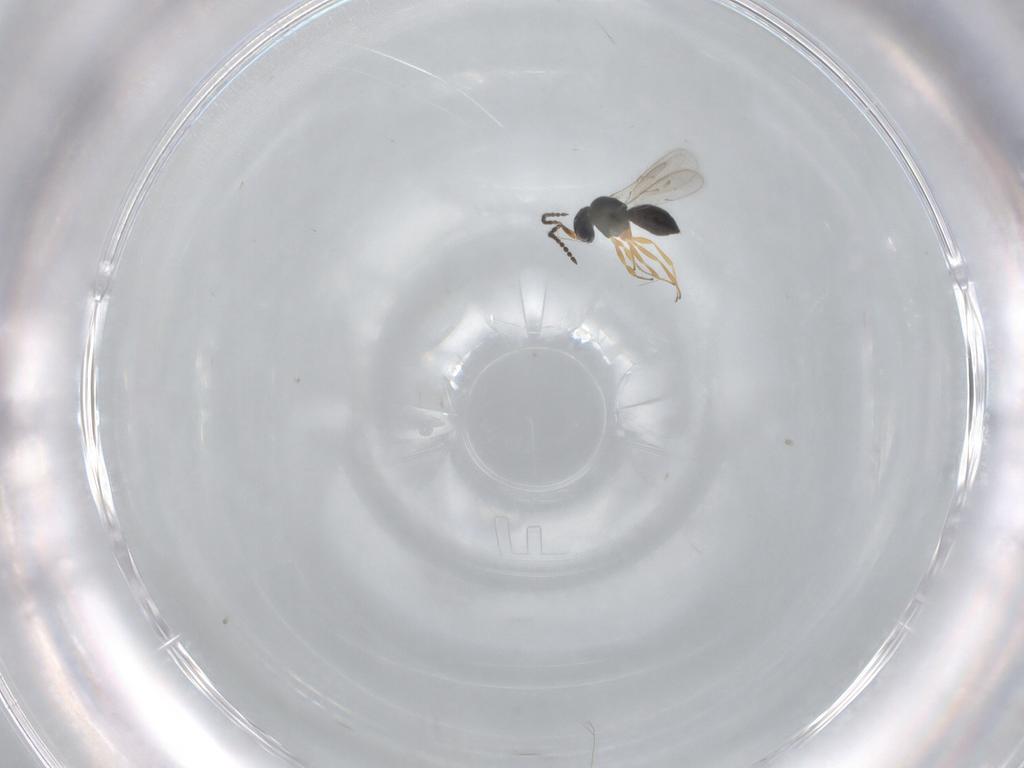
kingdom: Animalia
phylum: Arthropoda
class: Insecta
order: Hymenoptera
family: Scelionidae
